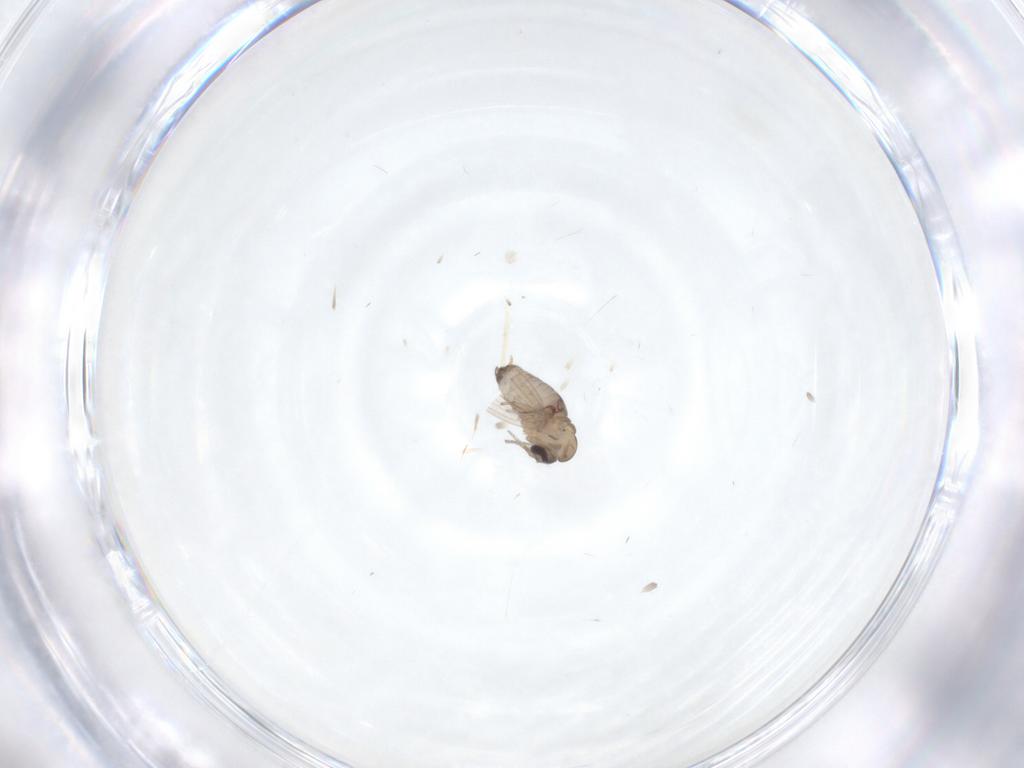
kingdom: Animalia
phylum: Arthropoda
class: Insecta
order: Diptera
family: Psychodidae
